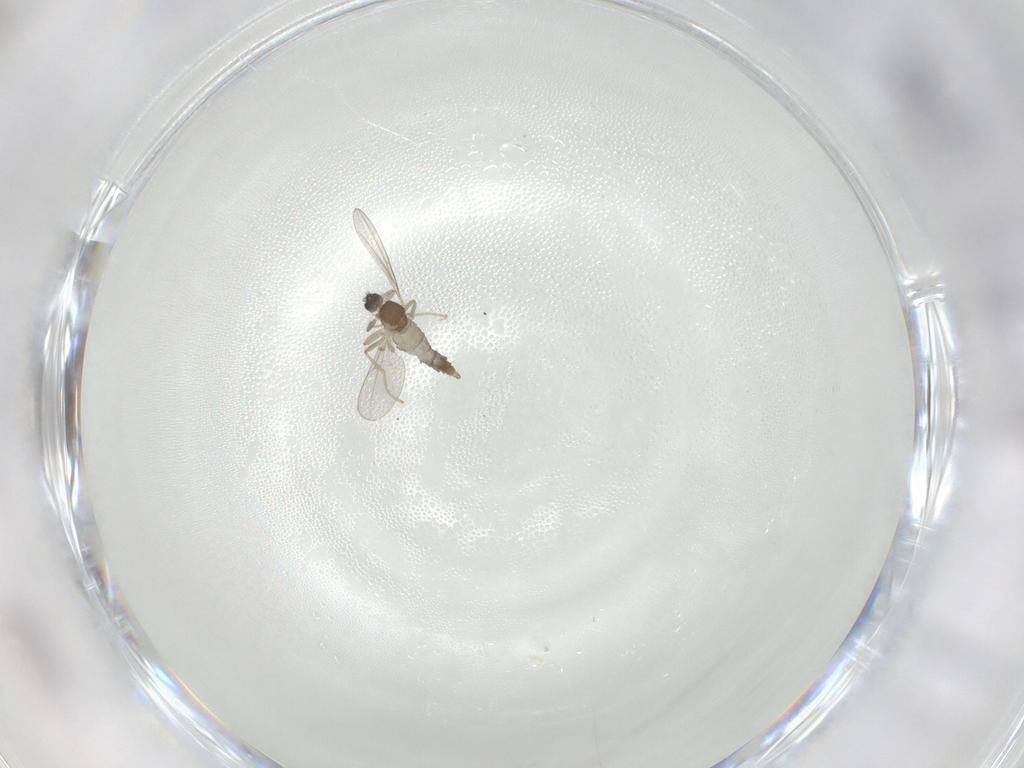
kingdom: Animalia
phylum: Arthropoda
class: Insecta
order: Diptera
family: Cecidomyiidae
